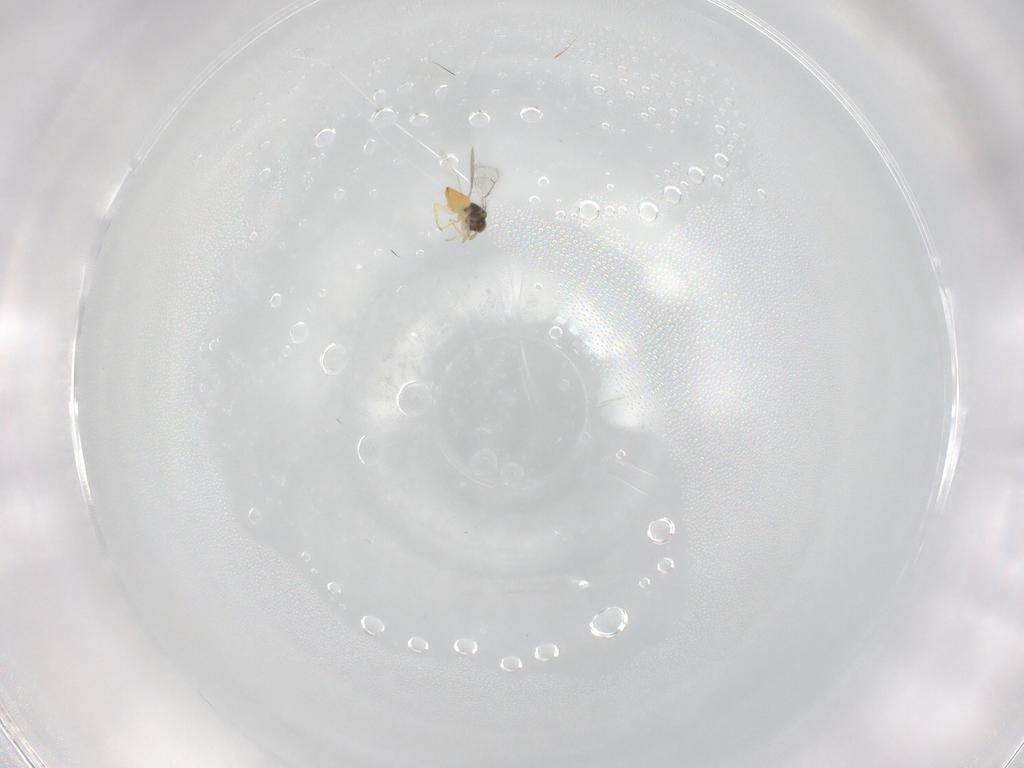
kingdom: Animalia
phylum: Arthropoda
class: Insecta
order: Hymenoptera
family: Eulophidae
